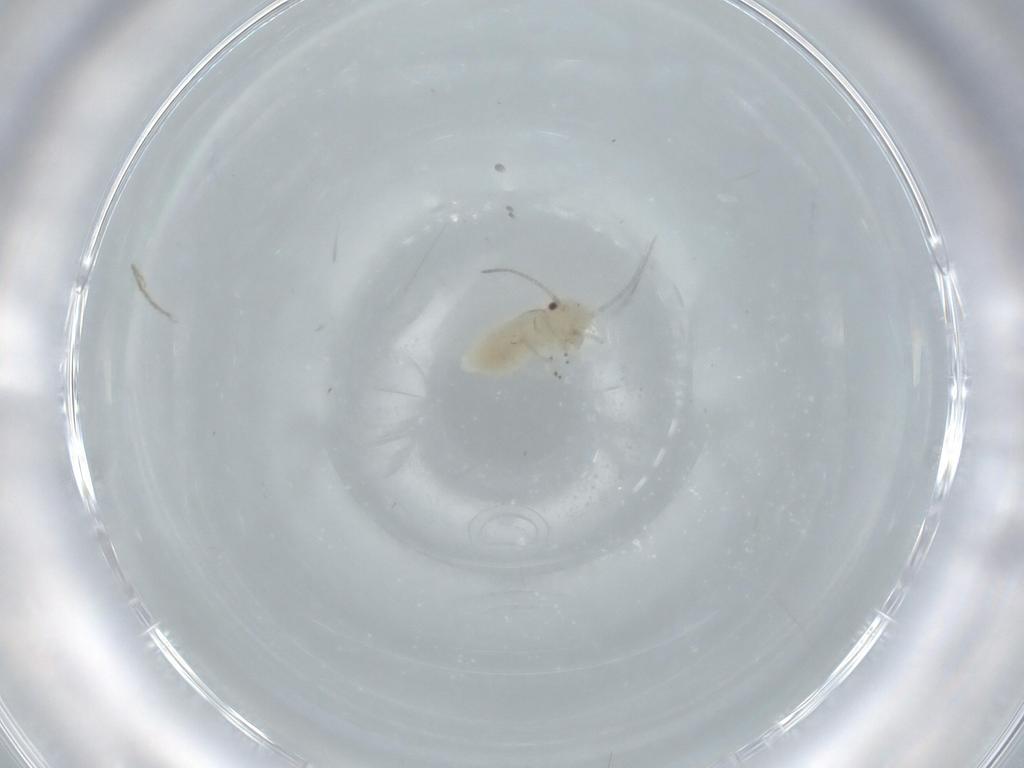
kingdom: Animalia
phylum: Arthropoda
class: Insecta
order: Psocodea
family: Caeciliusidae
